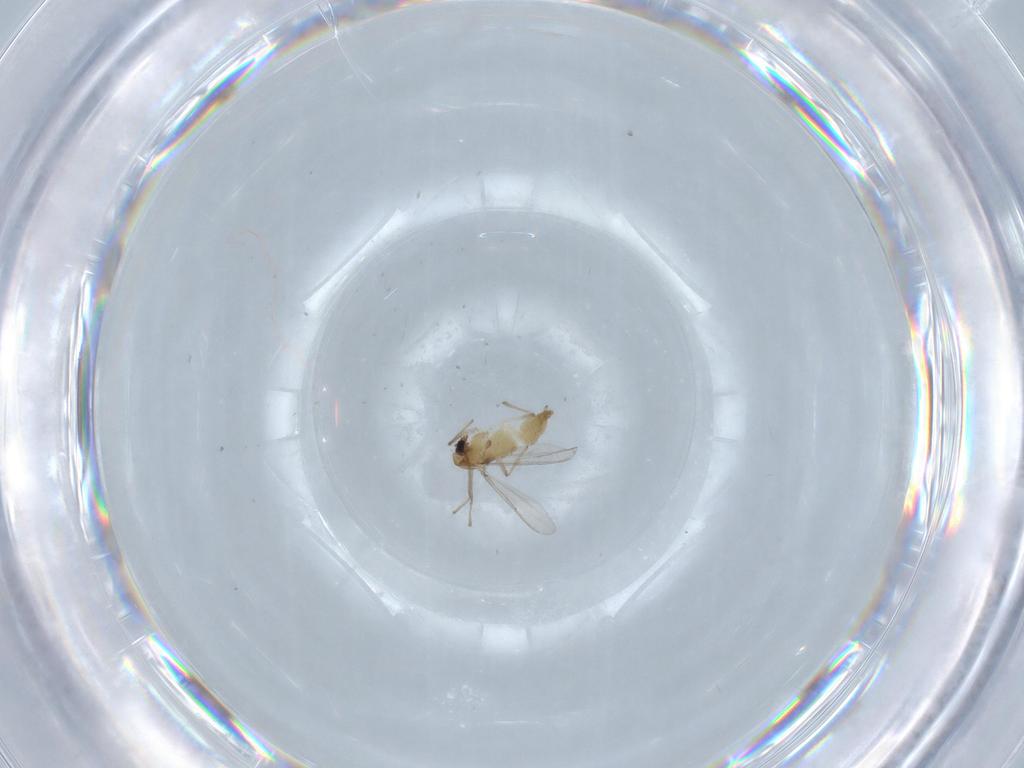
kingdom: Animalia
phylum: Arthropoda
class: Insecta
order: Diptera
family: Chironomidae
